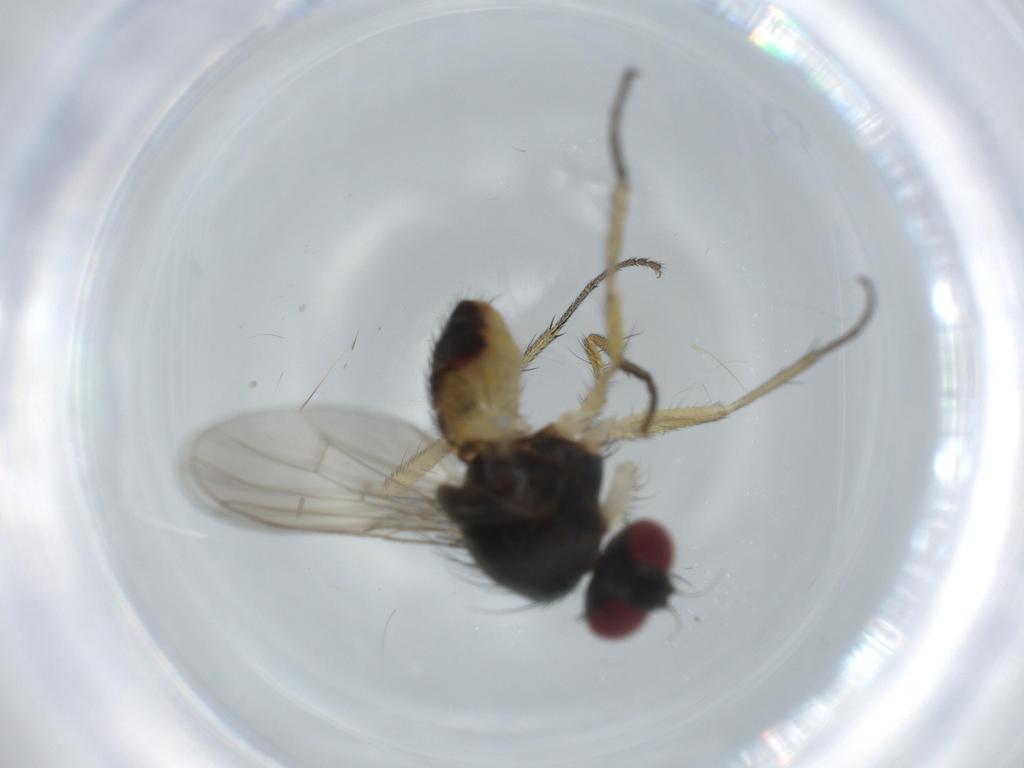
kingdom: Animalia
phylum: Arthropoda
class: Insecta
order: Diptera
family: Muscidae
